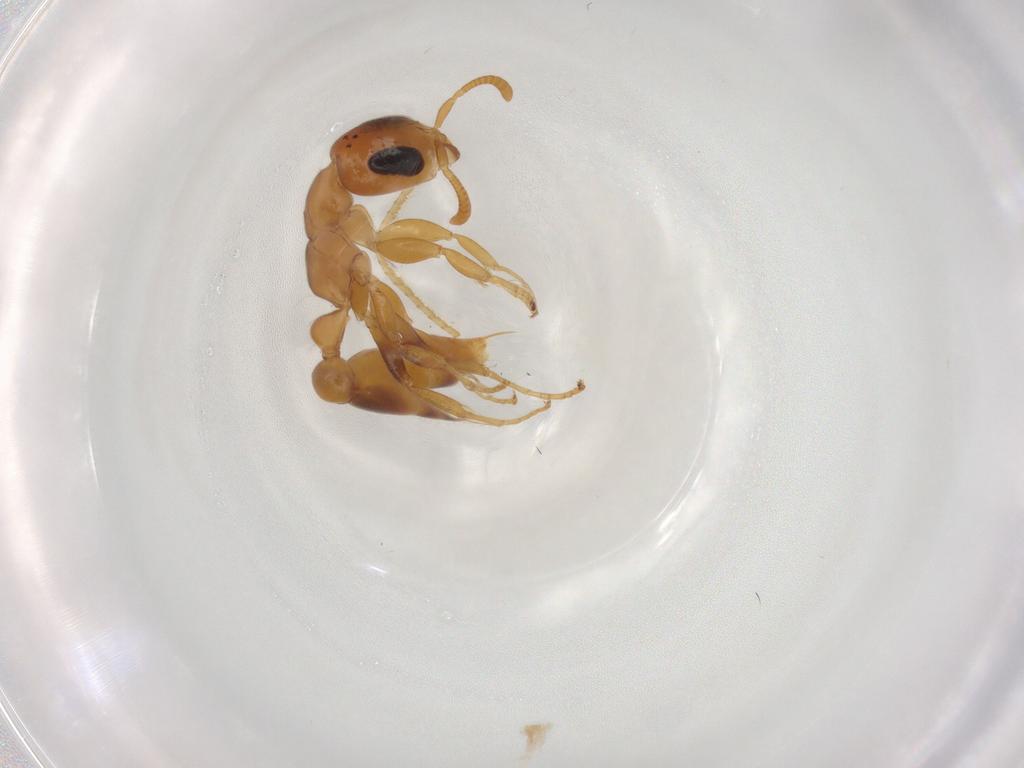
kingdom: Animalia
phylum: Arthropoda
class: Insecta
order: Hymenoptera
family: Formicidae
